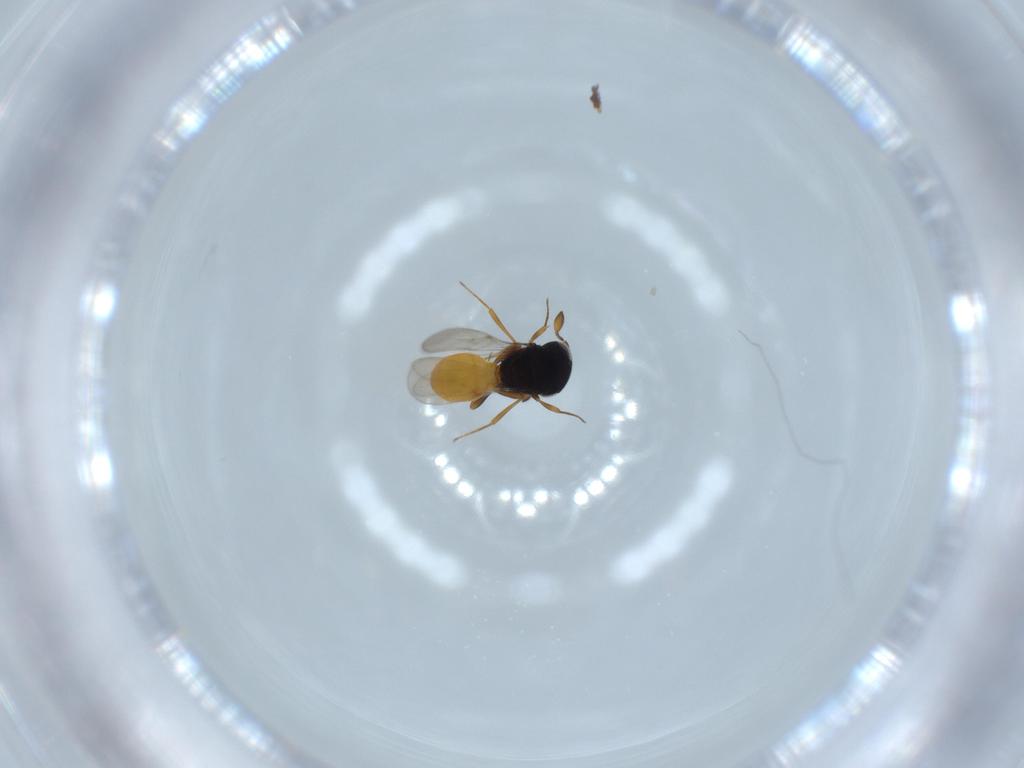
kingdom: Animalia
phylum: Arthropoda
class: Insecta
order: Hymenoptera
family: Scelionidae
